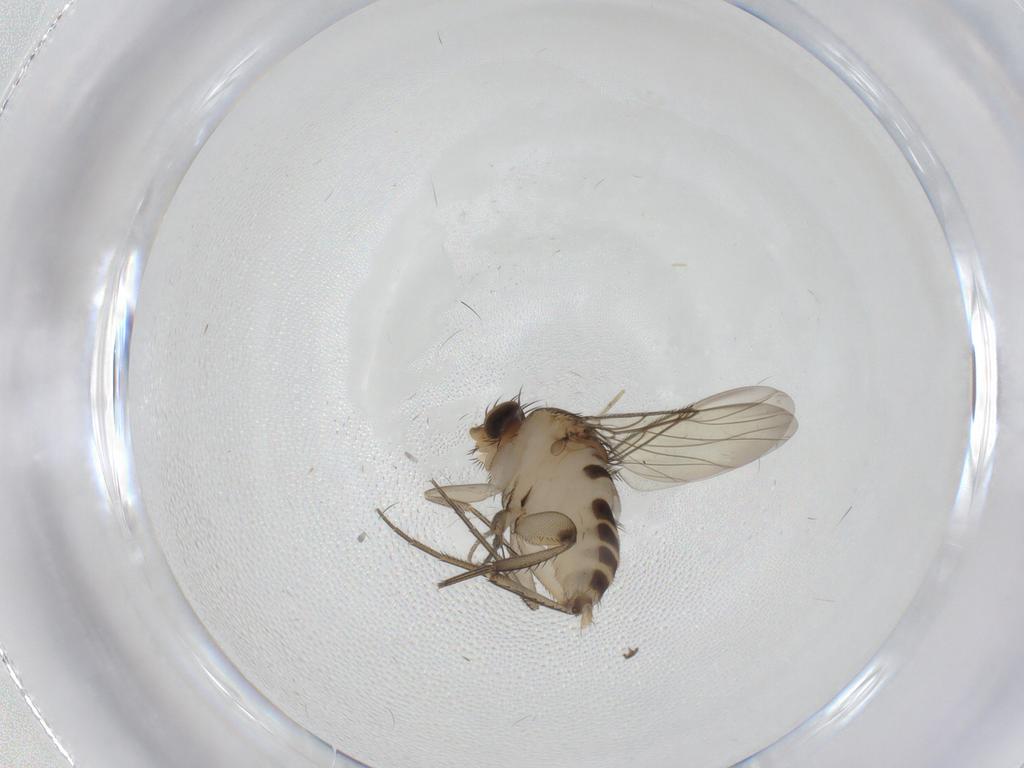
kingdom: Animalia
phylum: Arthropoda
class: Insecta
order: Diptera
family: Phoridae
